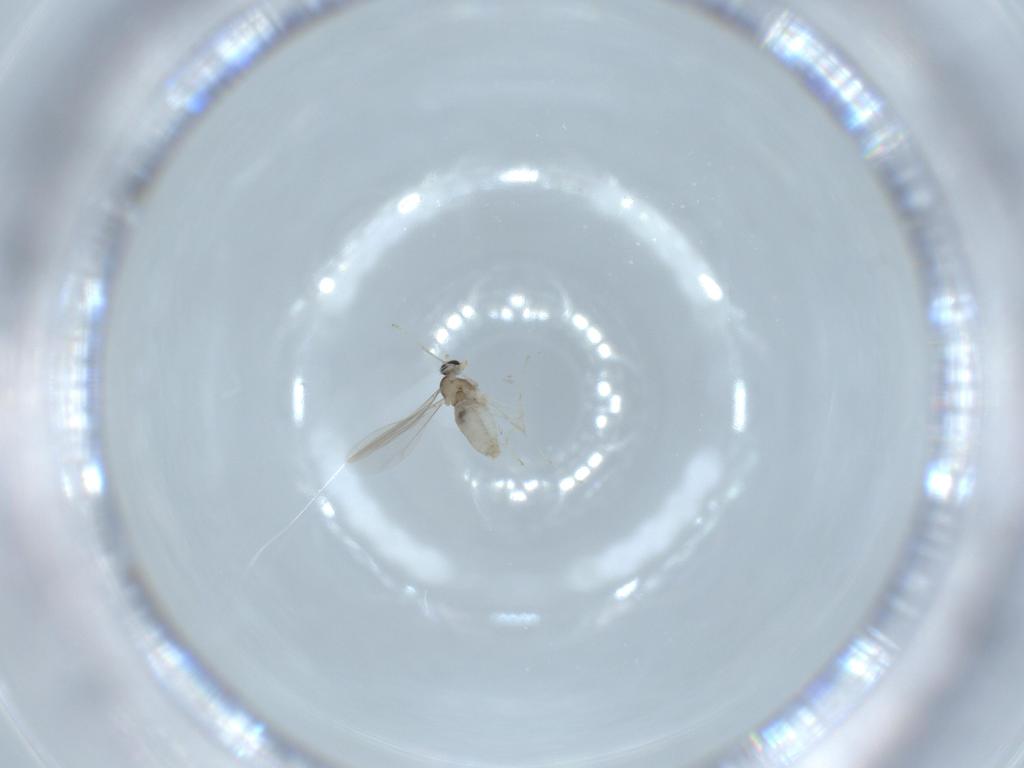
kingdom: Animalia
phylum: Arthropoda
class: Insecta
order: Diptera
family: Cecidomyiidae
